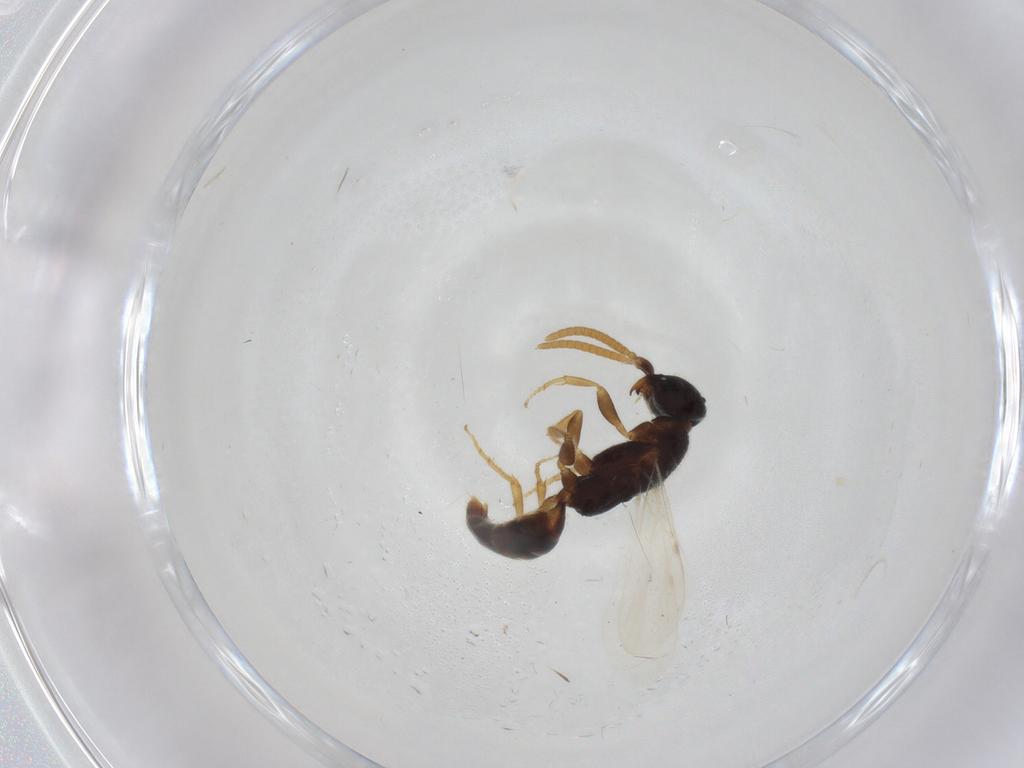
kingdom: Animalia
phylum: Arthropoda
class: Insecta
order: Hymenoptera
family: Bethylidae
